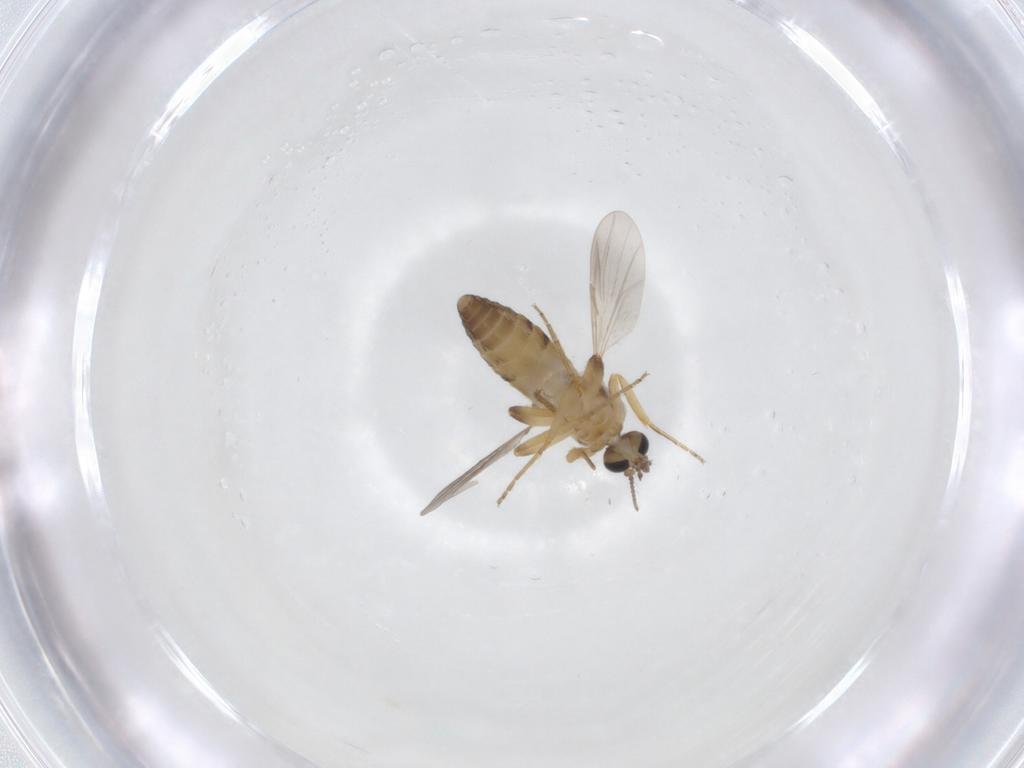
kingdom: Animalia
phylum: Arthropoda
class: Insecta
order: Diptera
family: Ceratopogonidae
